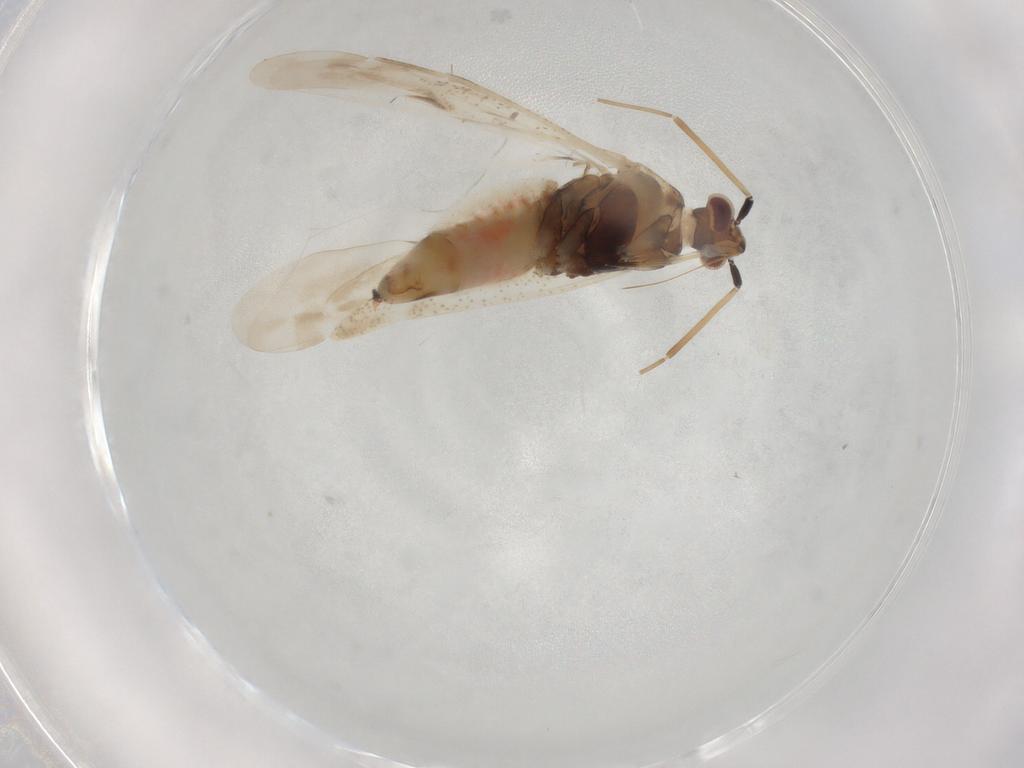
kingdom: Animalia
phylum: Arthropoda
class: Insecta
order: Hemiptera
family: Miridae
